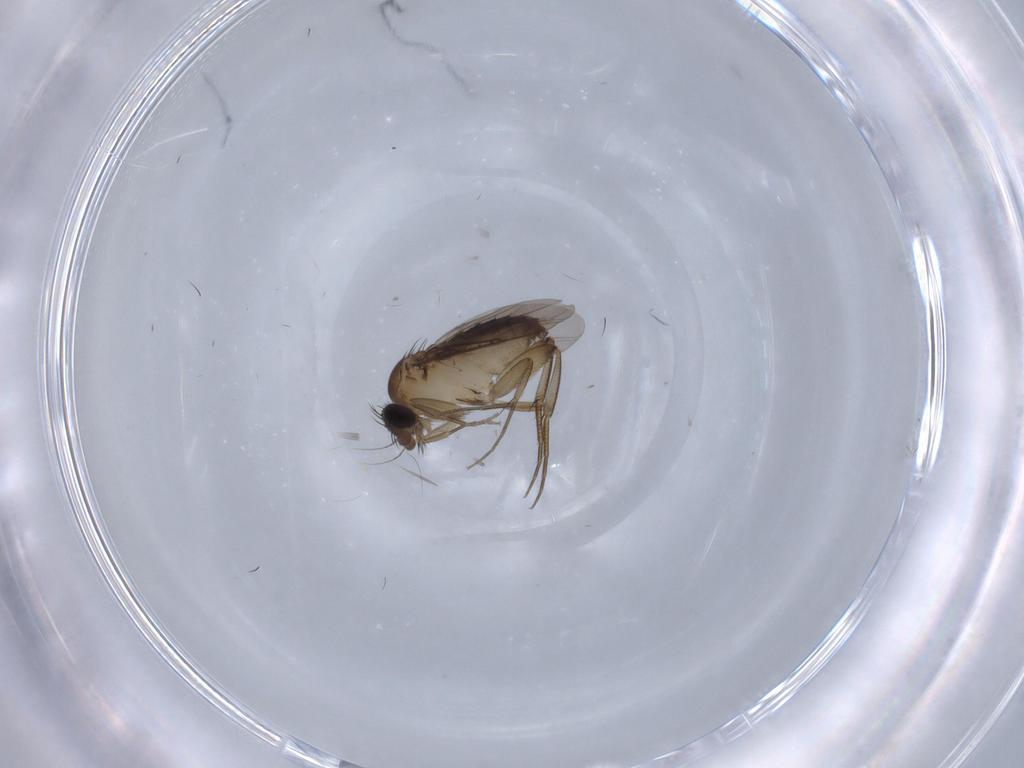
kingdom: Animalia
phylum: Arthropoda
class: Insecta
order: Diptera
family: Phoridae
